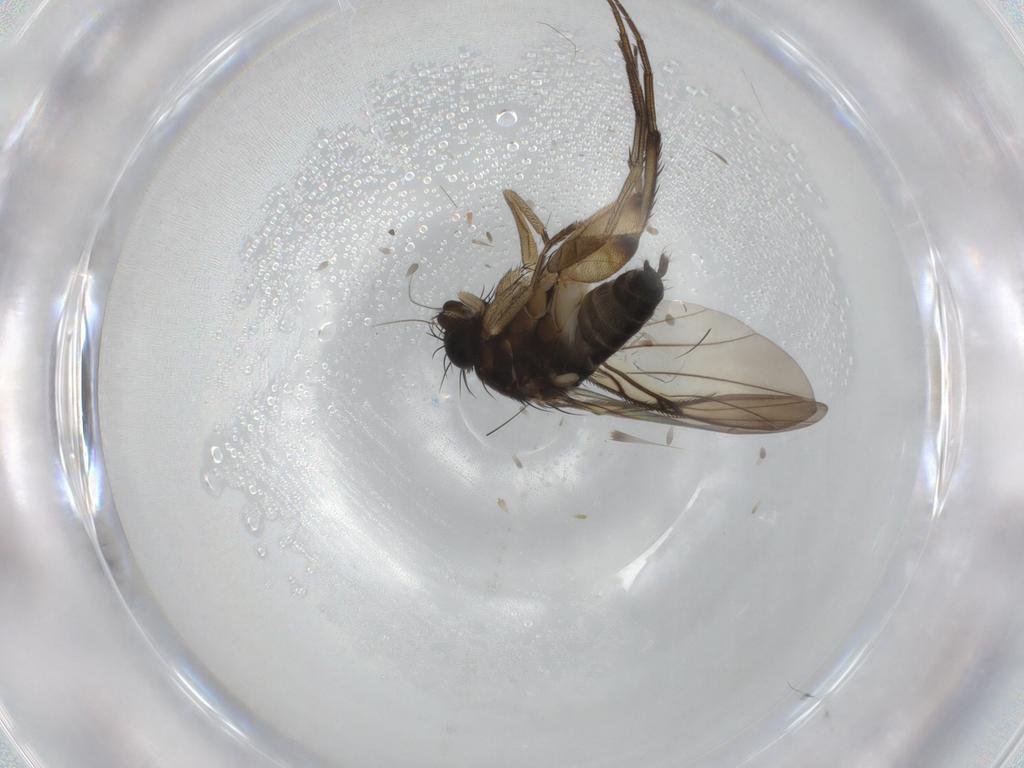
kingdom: Animalia
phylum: Arthropoda
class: Insecta
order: Diptera
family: Phoridae
